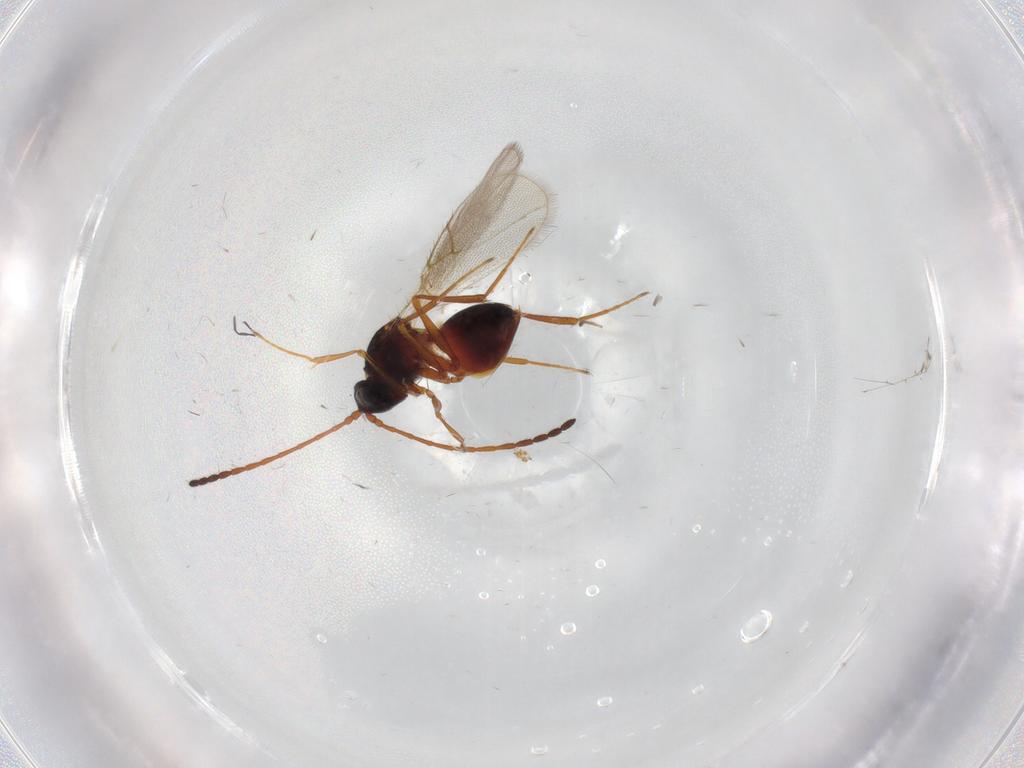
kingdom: Animalia
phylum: Arthropoda
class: Insecta
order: Hymenoptera
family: Figitidae
